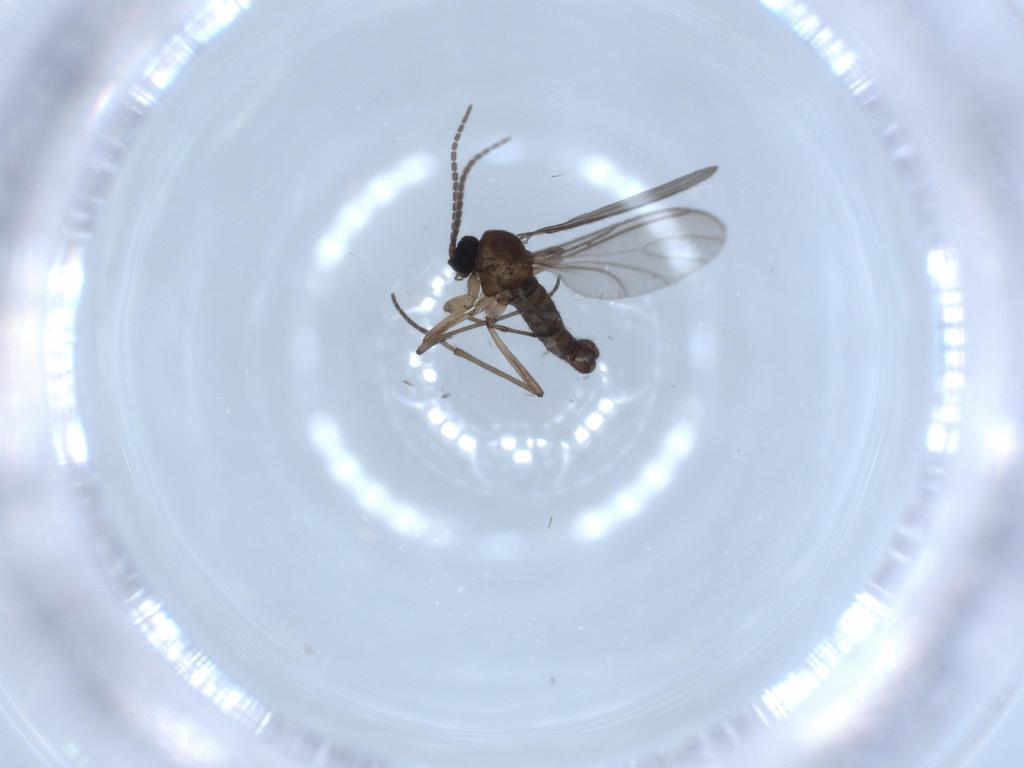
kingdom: Animalia
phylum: Arthropoda
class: Insecta
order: Diptera
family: Sciaridae
